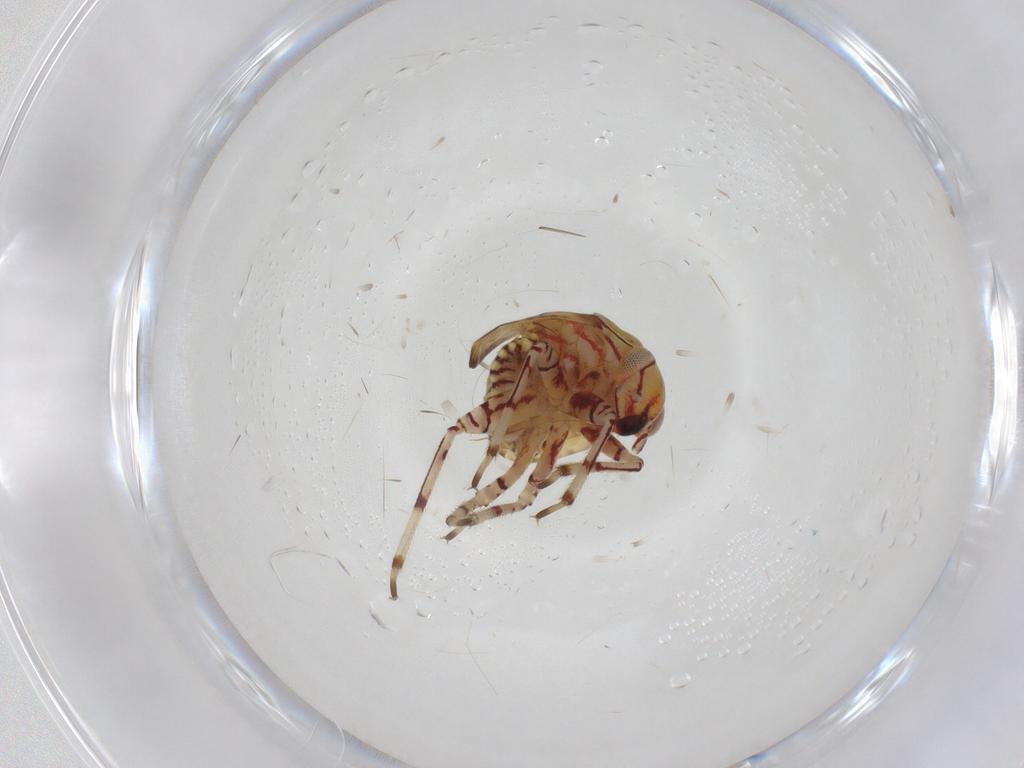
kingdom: Animalia
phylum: Arthropoda
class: Insecta
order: Hemiptera
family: Miridae
